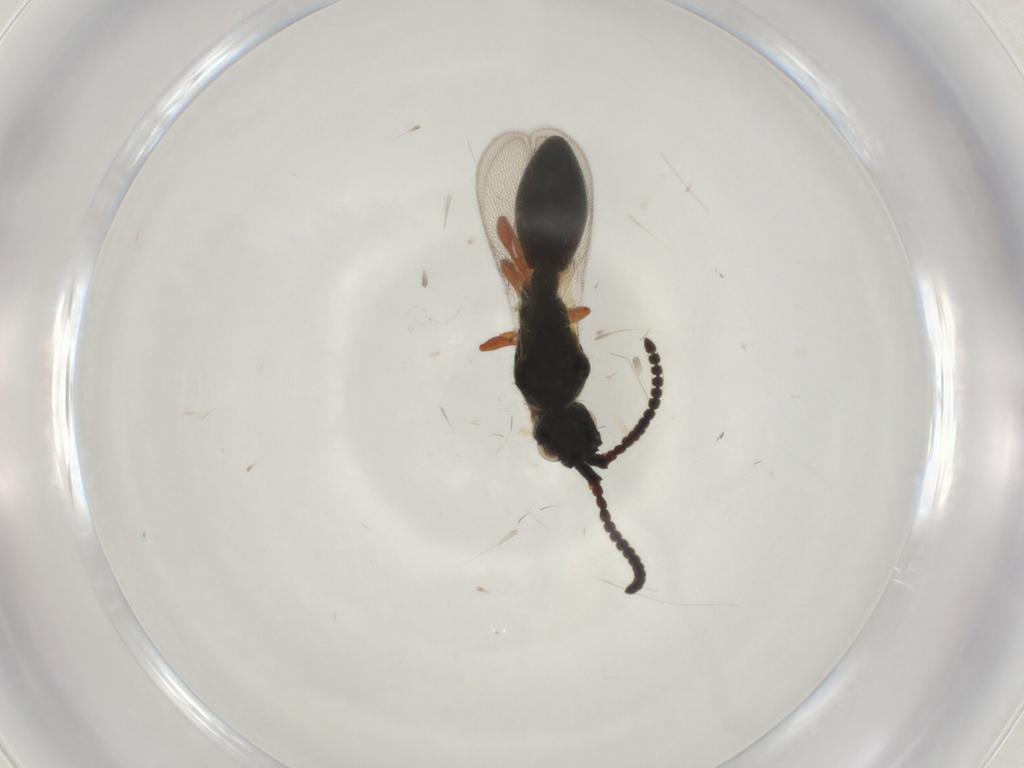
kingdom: Animalia
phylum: Arthropoda
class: Insecta
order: Hymenoptera
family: Diapriidae
